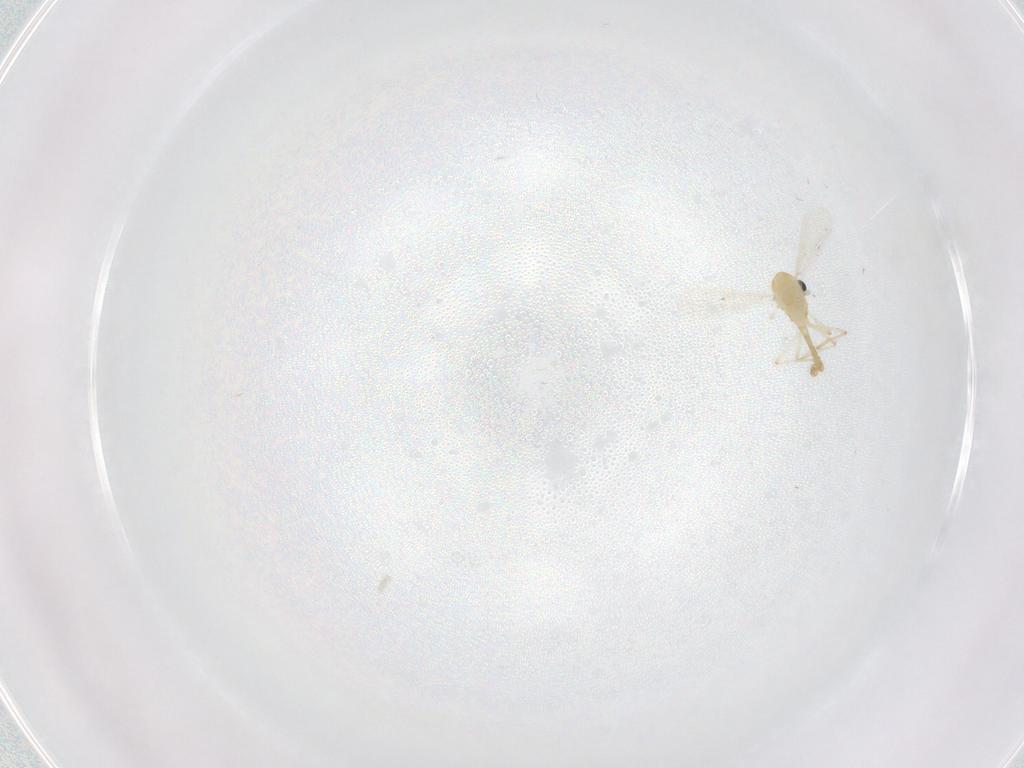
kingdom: Animalia
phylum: Arthropoda
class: Insecta
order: Diptera
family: Chironomidae
